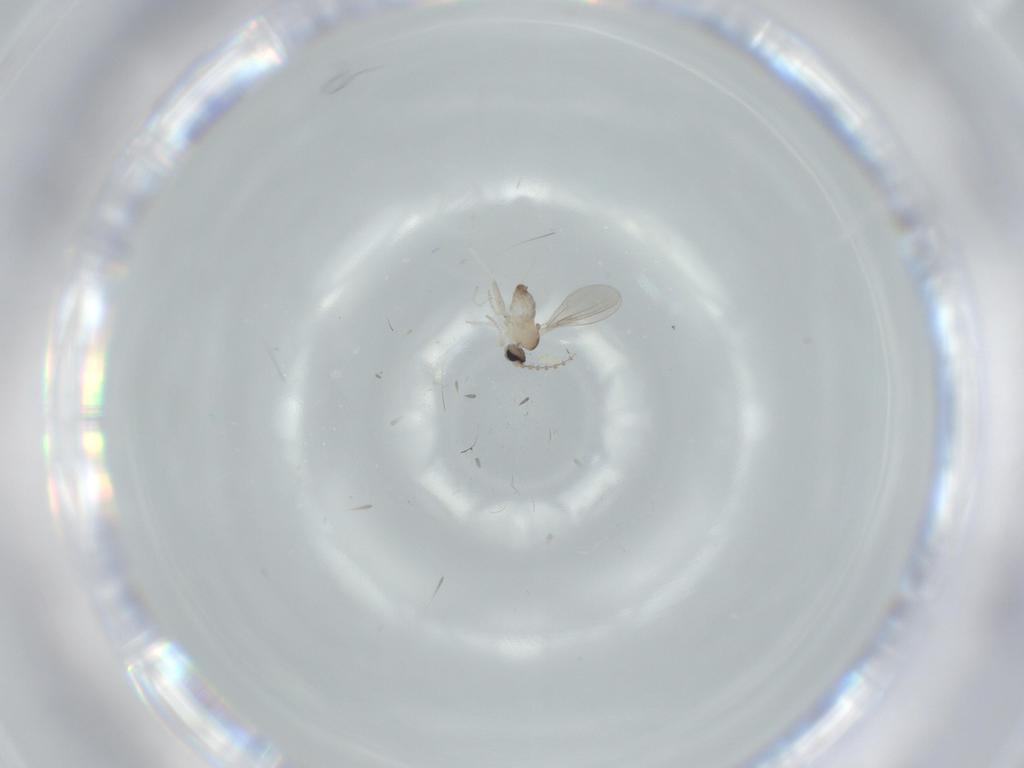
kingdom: Animalia
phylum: Arthropoda
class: Insecta
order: Diptera
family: Cecidomyiidae
